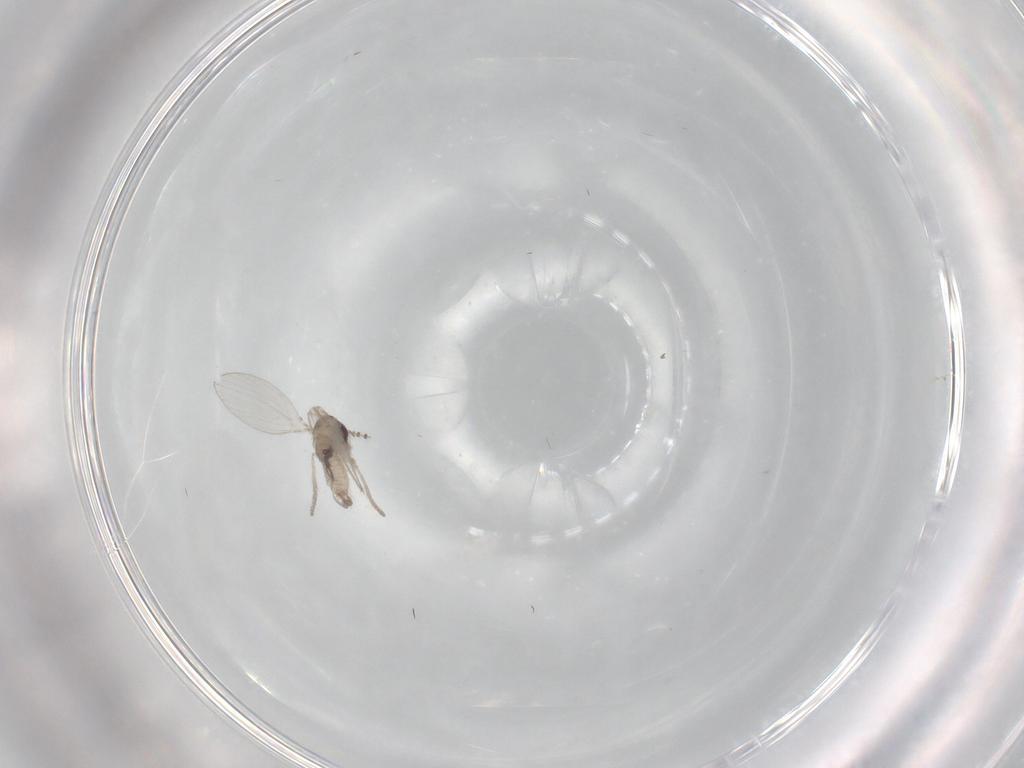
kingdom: Animalia
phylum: Arthropoda
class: Insecta
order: Diptera
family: Psychodidae
